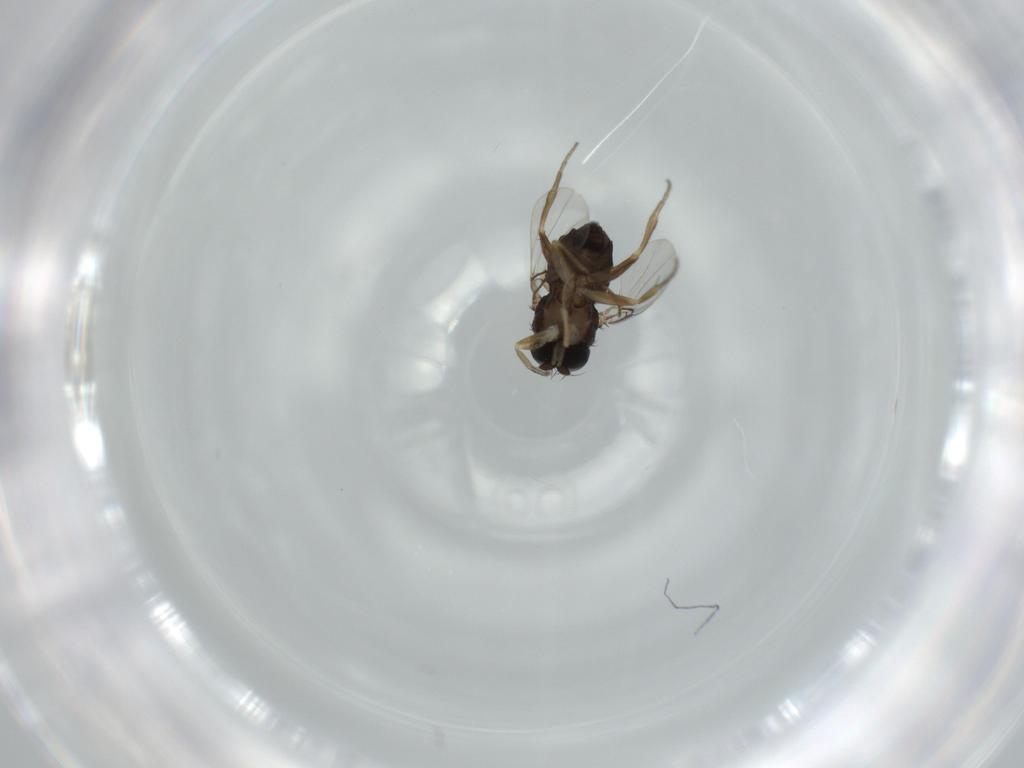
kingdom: Animalia
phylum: Arthropoda
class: Insecta
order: Diptera
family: Phoridae
